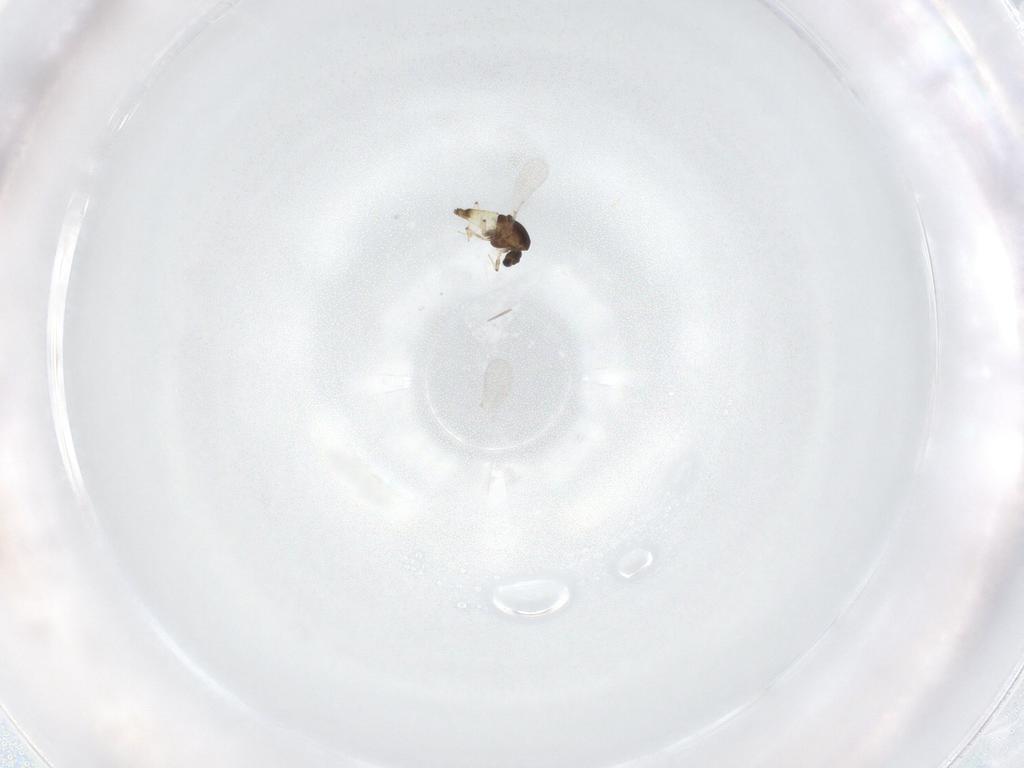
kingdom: Animalia
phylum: Arthropoda
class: Insecta
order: Diptera
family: Chironomidae
